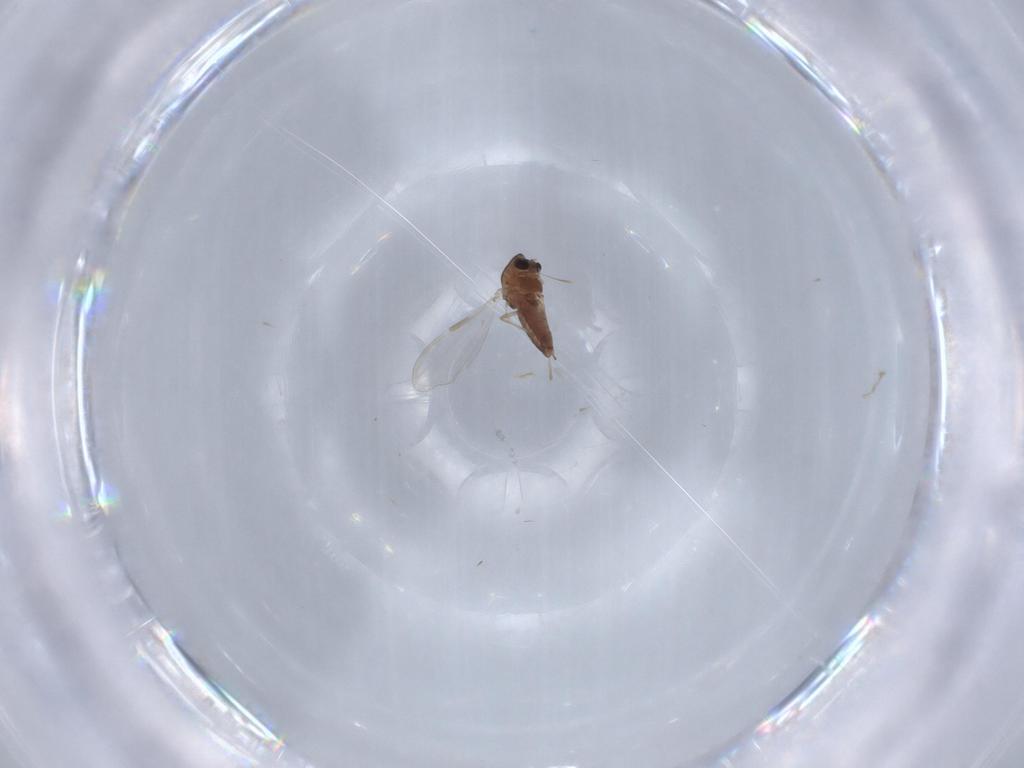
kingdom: Animalia
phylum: Arthropoda
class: Insecta
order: Diptera
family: Chironomidae
